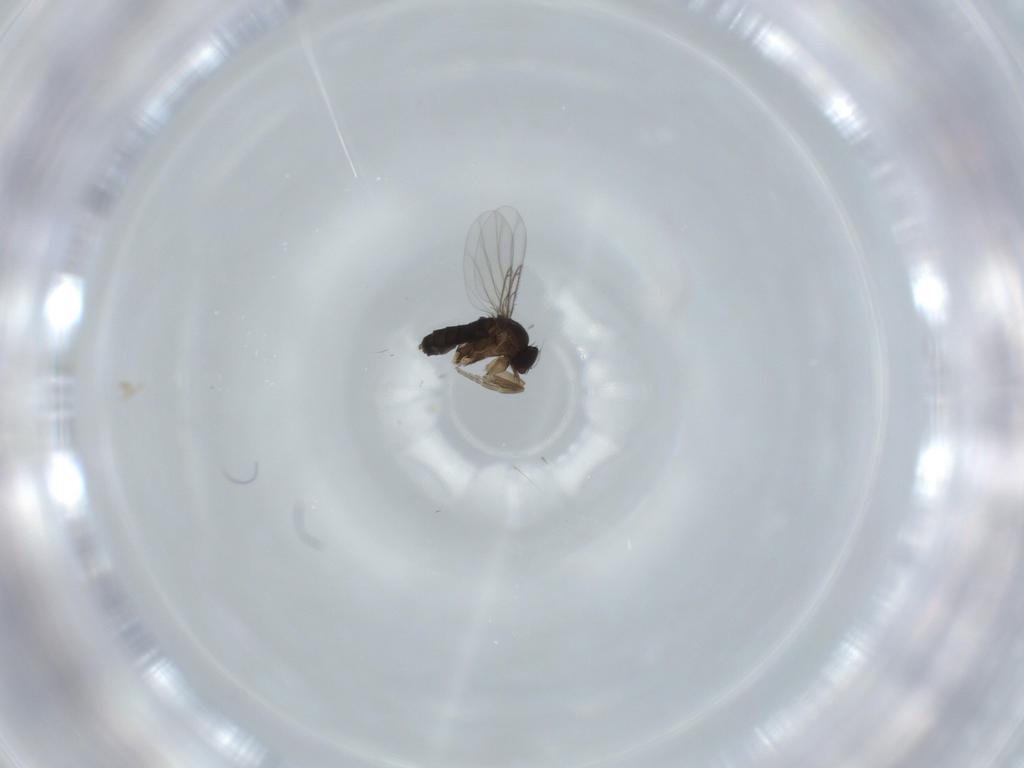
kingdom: Animalia
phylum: Arthropoda
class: Insecta
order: Diptera
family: Phoridae
